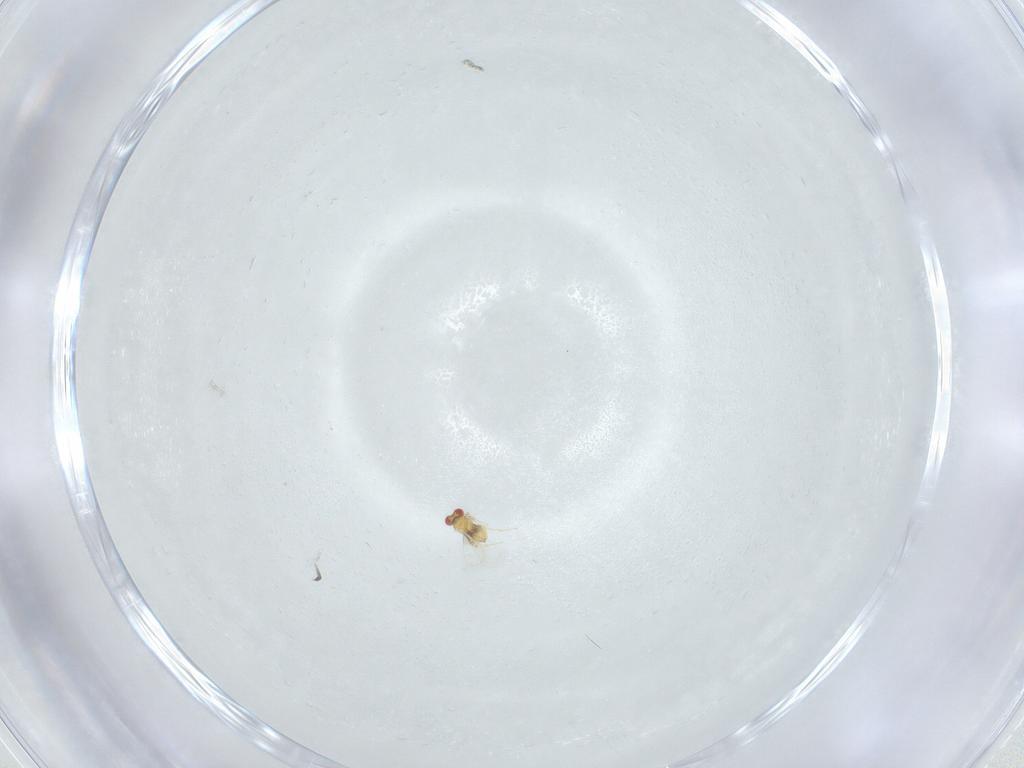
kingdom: Animalia
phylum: Arthropoda
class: Insecta
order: Hymenoptera
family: Trichogrammatidae
